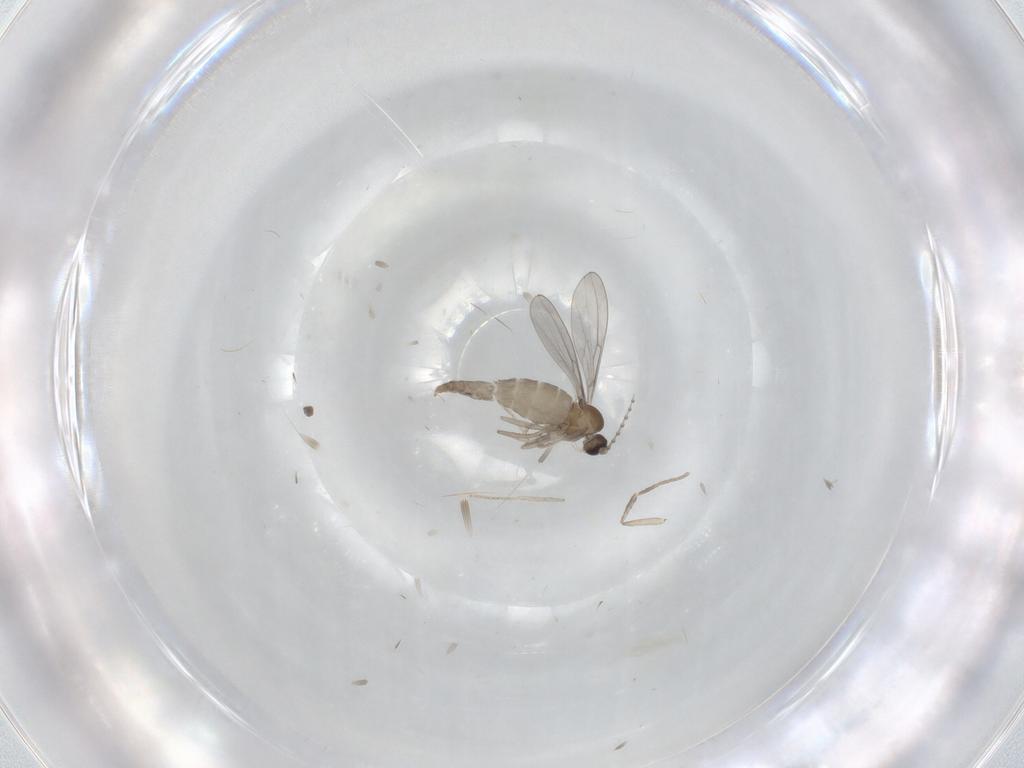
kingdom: Animalia
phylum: Arthropoda
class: Insecta
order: Diptera
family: Cecidomyiidae
